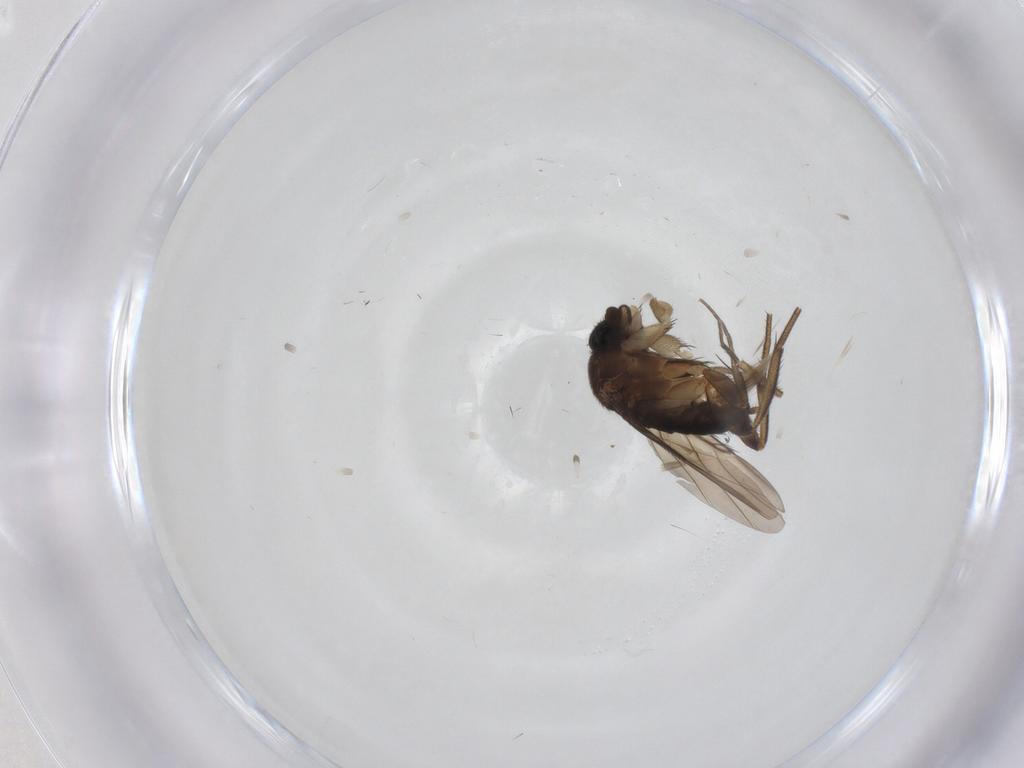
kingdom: Animalia
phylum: Arthropoda
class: Insecta
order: Diptera
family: Phoridae
